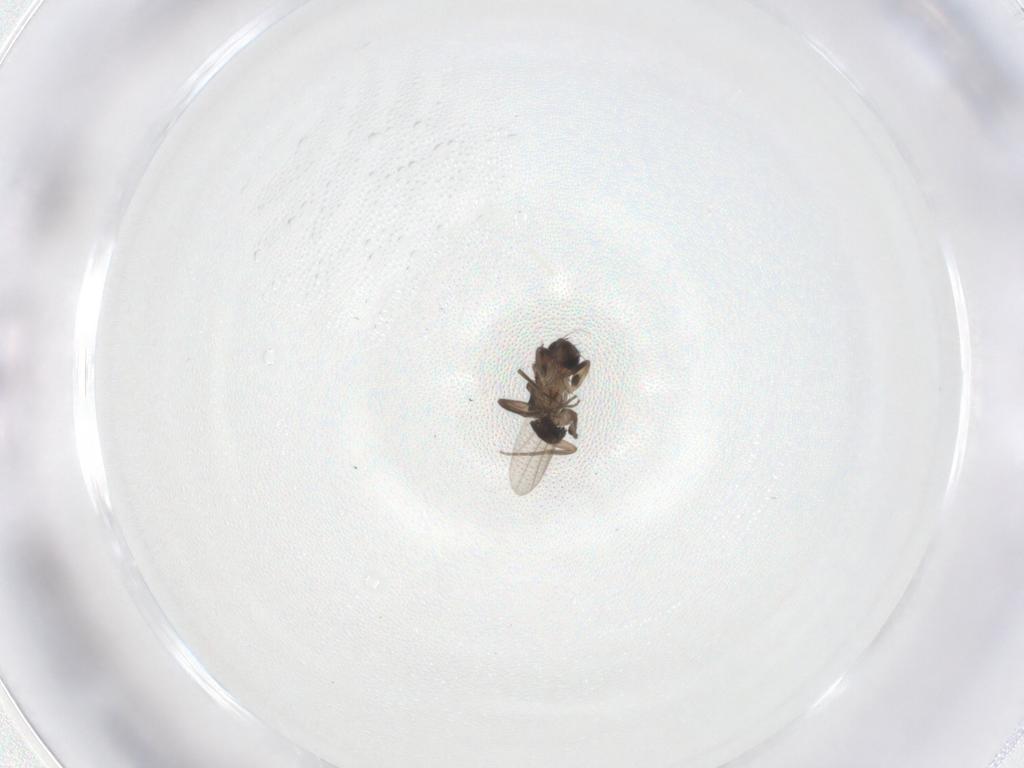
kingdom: Animalia
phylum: Arthropoda
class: Insecta
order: Diptera
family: Phoridae
